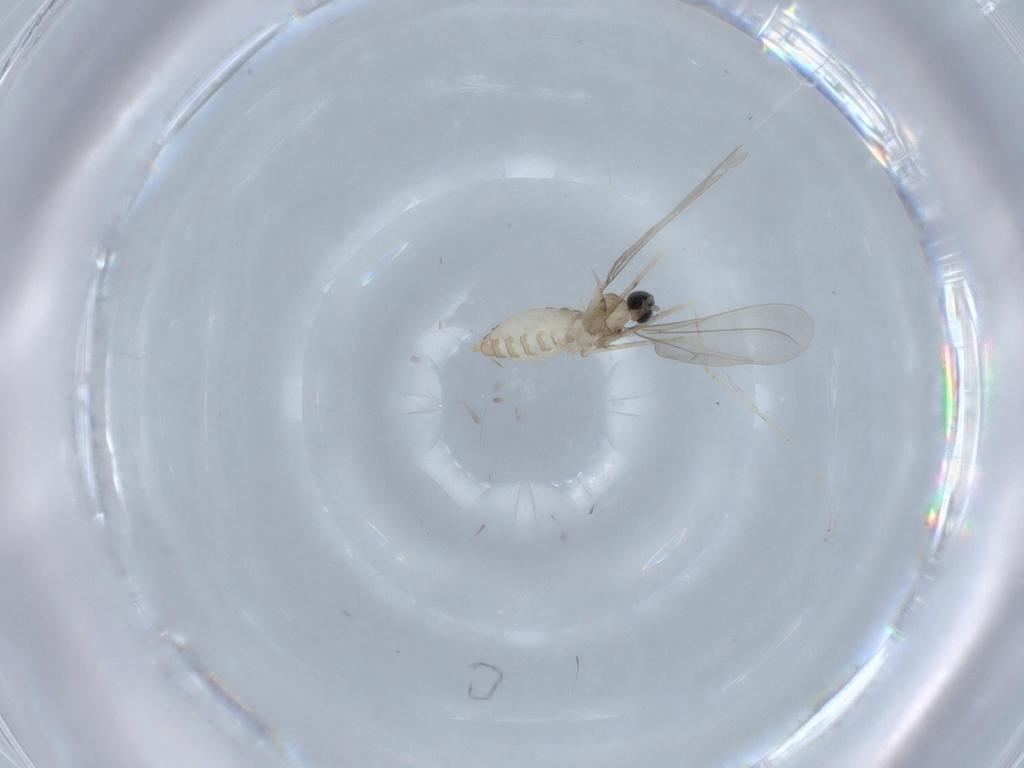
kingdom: Animalia
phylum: Arthropoda
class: Insecta
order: Diptera
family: Cecidomyiidae
